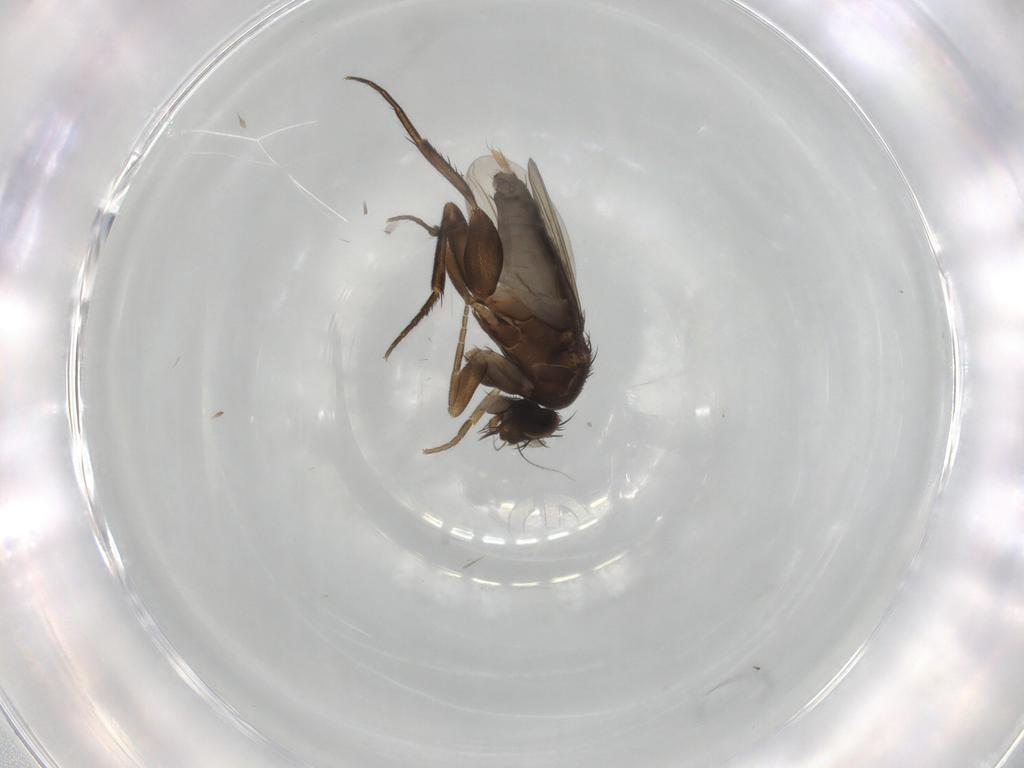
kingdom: Animalia
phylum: Arthropoda
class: Insecta
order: Diptera
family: Phoridae
